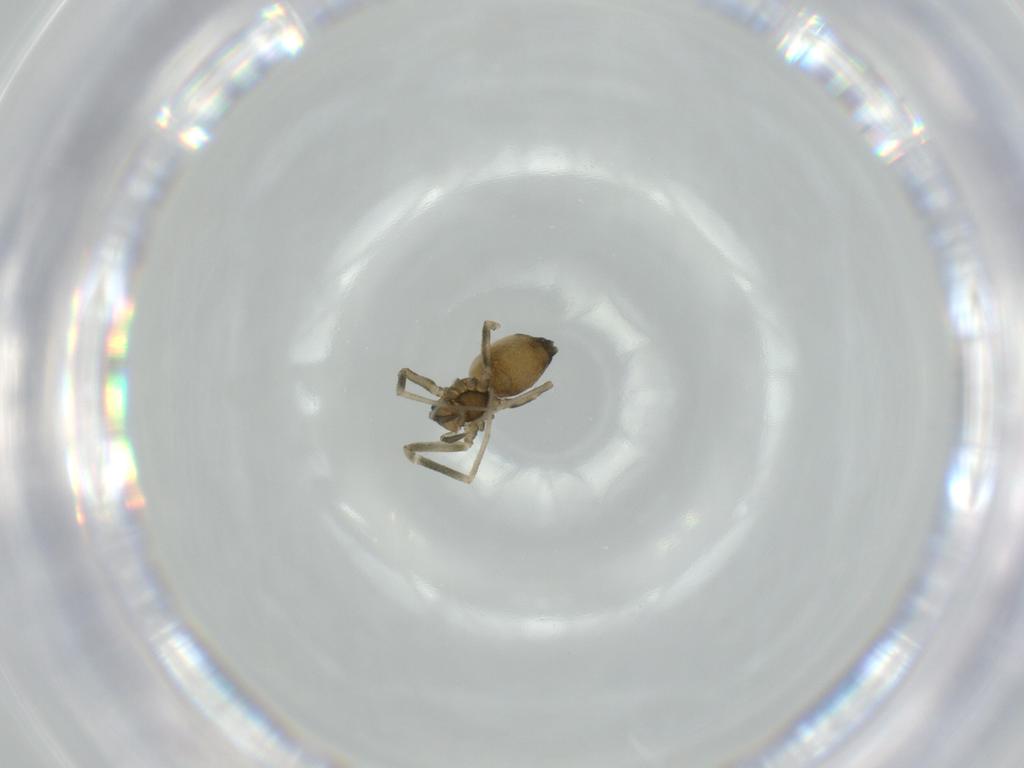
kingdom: Animalia
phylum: Arthropoda
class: Arachnida
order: Araneae
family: Linyphiidae
